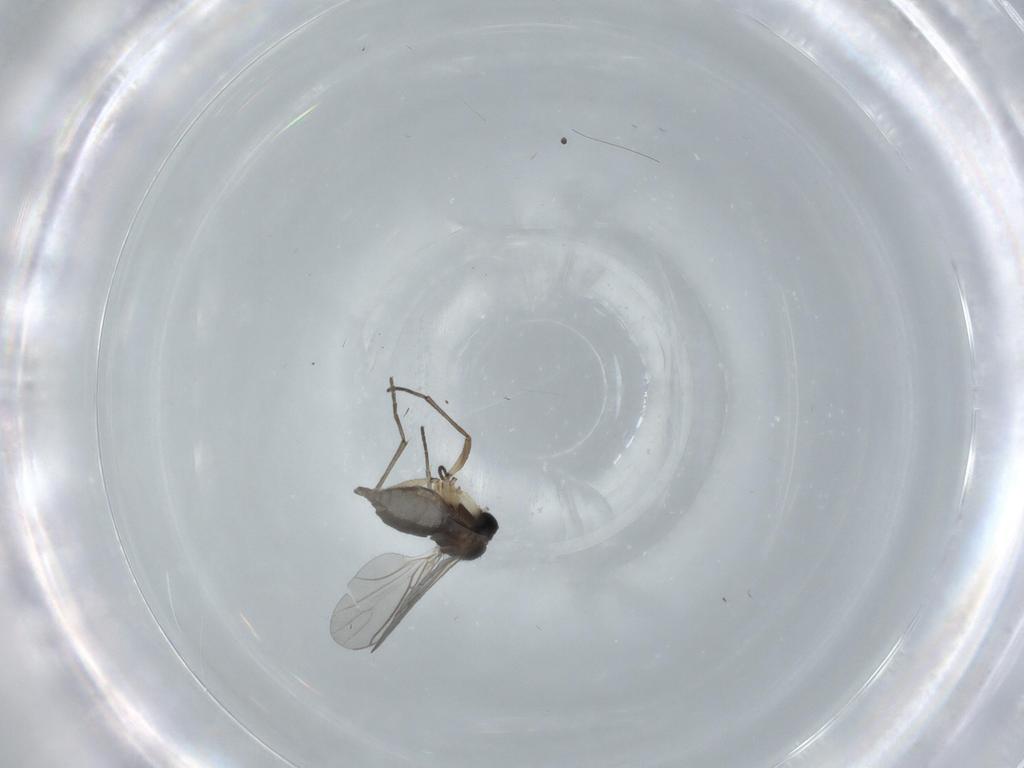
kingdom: Animalia
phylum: Arthropoda
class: Insecta
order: Diptera
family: Sciaridae
